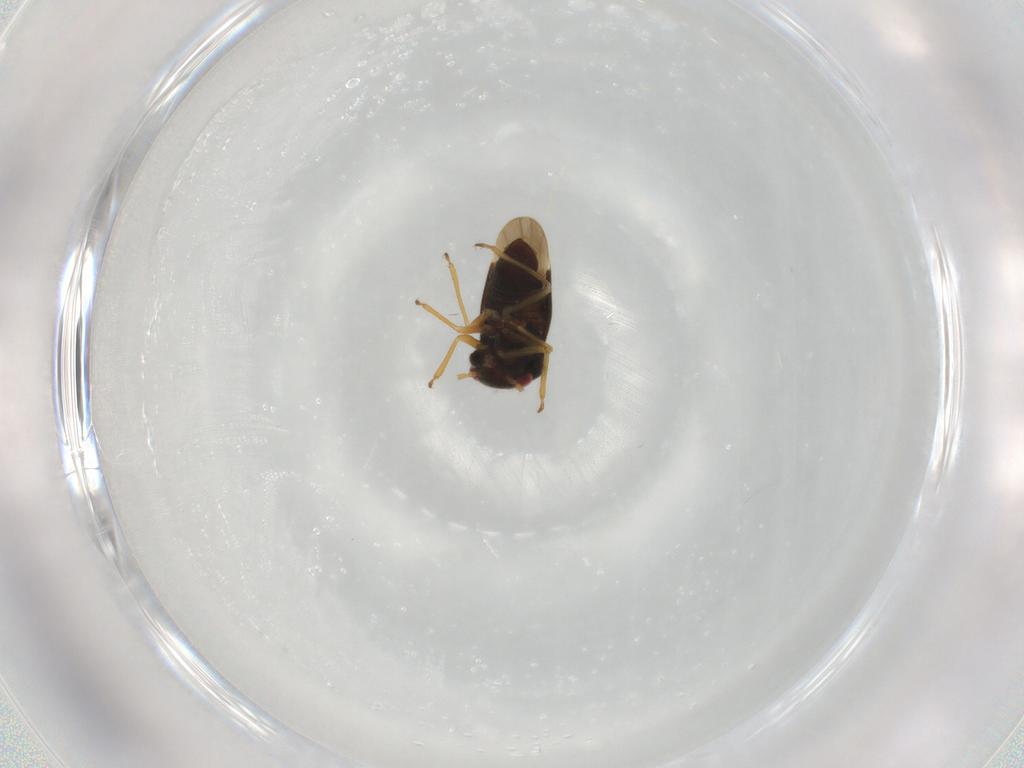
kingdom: Animalia
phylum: Arthropoda
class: Insecta
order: Hemiptera
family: Schizopteridae
